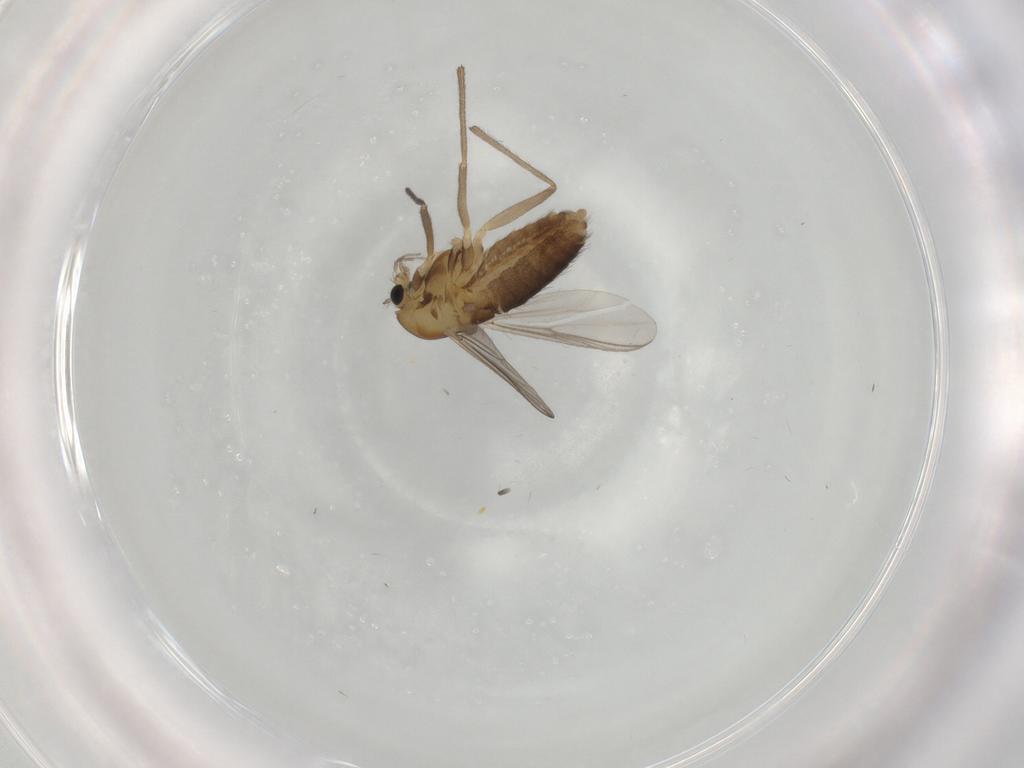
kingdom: Animalia
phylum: Arthropoda
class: Insecta
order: Diptera
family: Chironomidae
